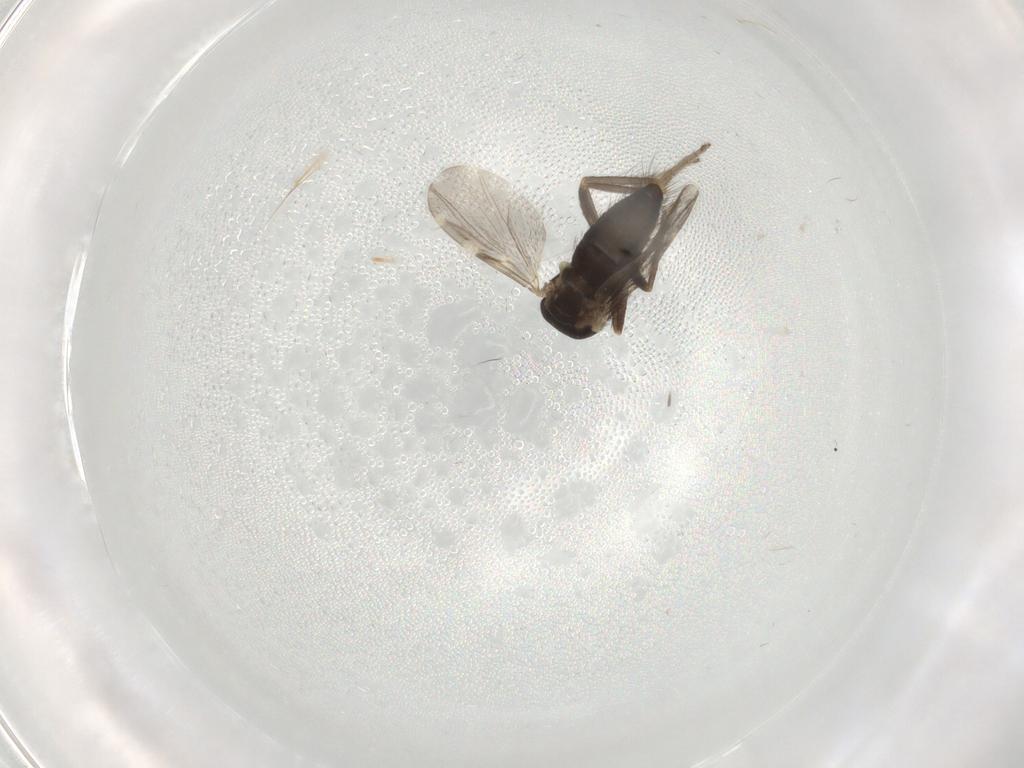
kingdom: Animalia
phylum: Arthropoda
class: Insecta
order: Diptera
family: Ceratopogonidae
